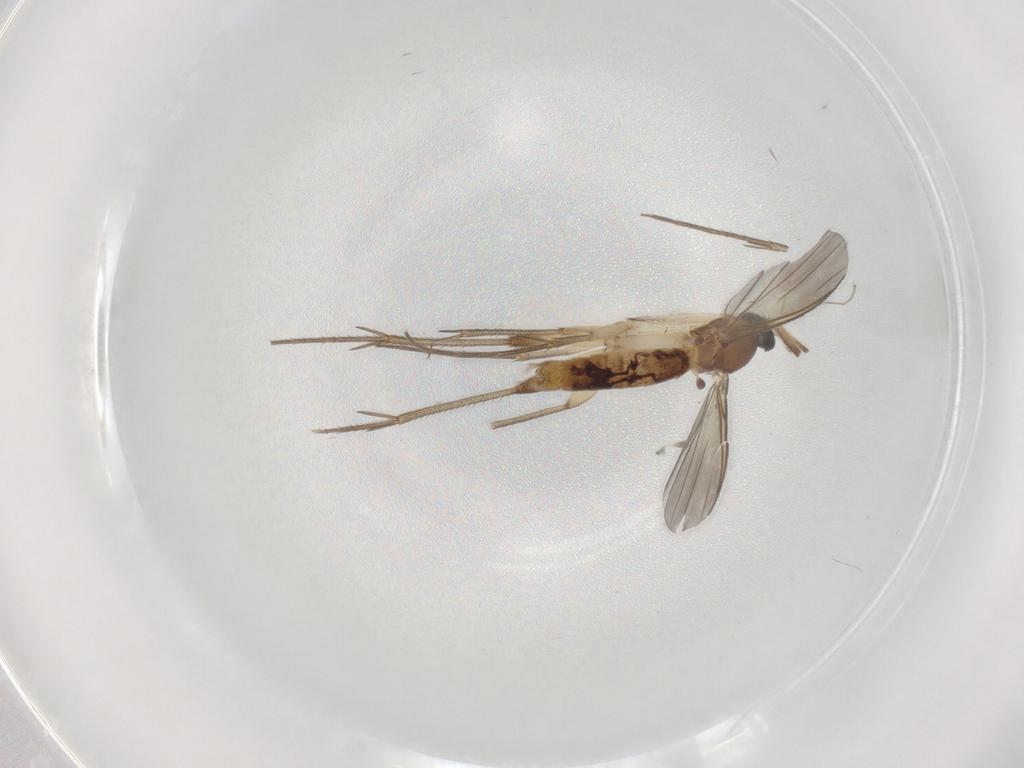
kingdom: Animalia
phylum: Arthropoda
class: Insecta
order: Diptera
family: Mycetophilidae
